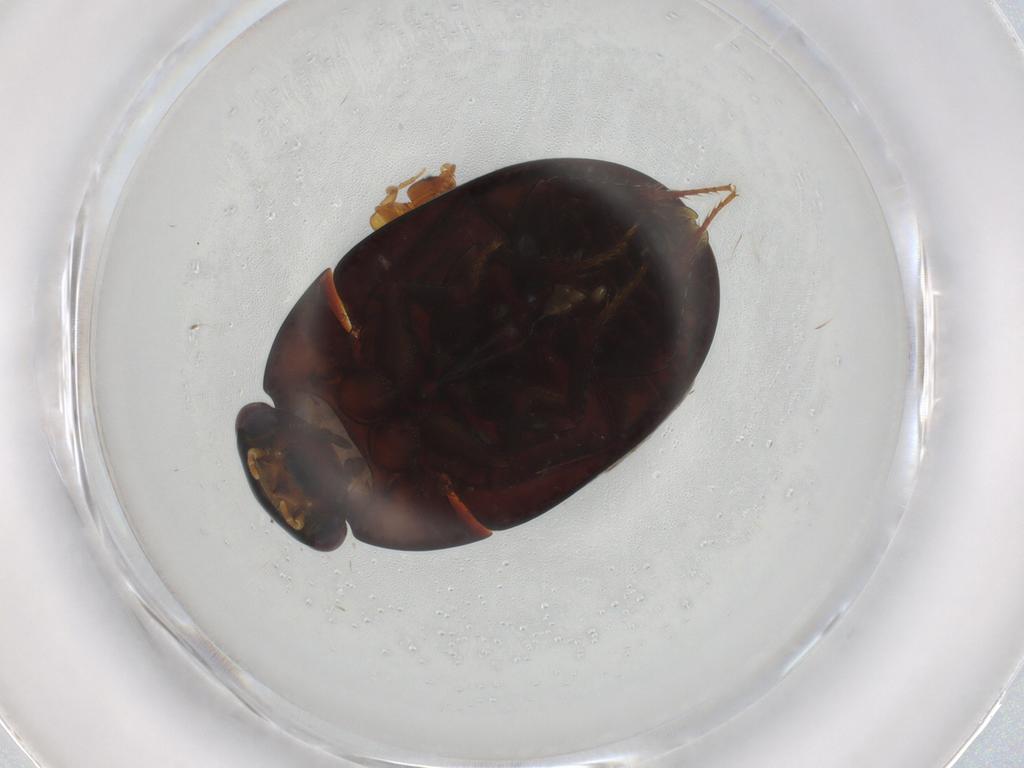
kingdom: Animalia
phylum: Arthropoda
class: Insecta
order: Coleoptera
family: Hydrophilidae
